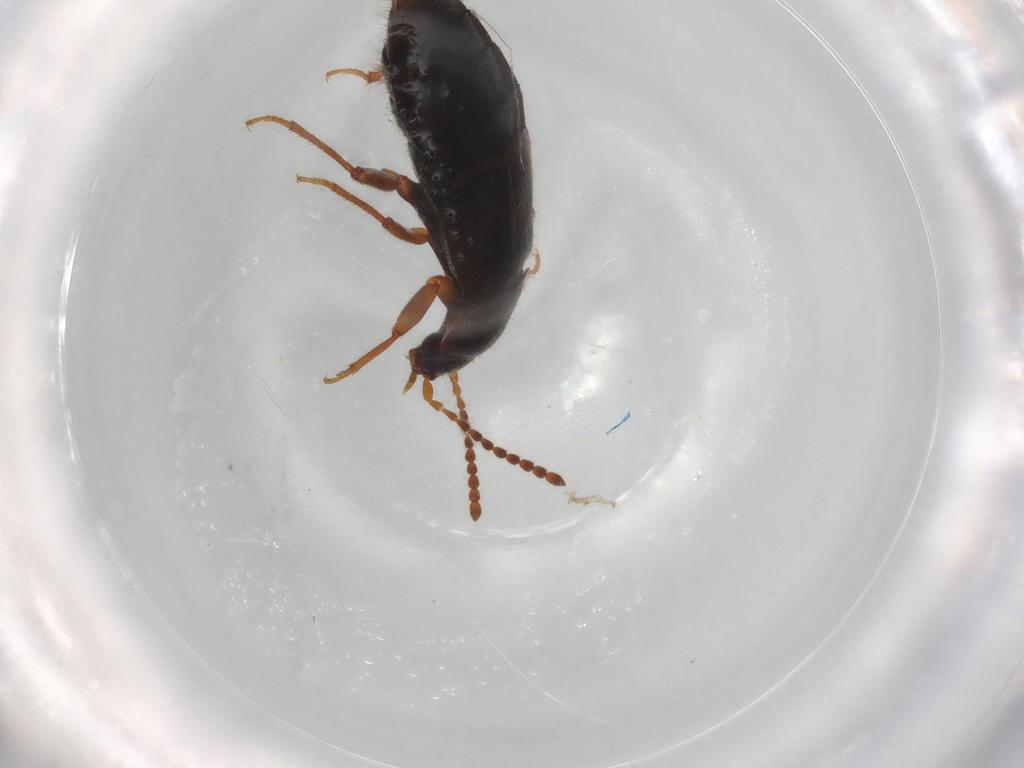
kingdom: Animalia
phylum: Arthropoda
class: Insecta
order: Coleoptera
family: Staphylinidae
